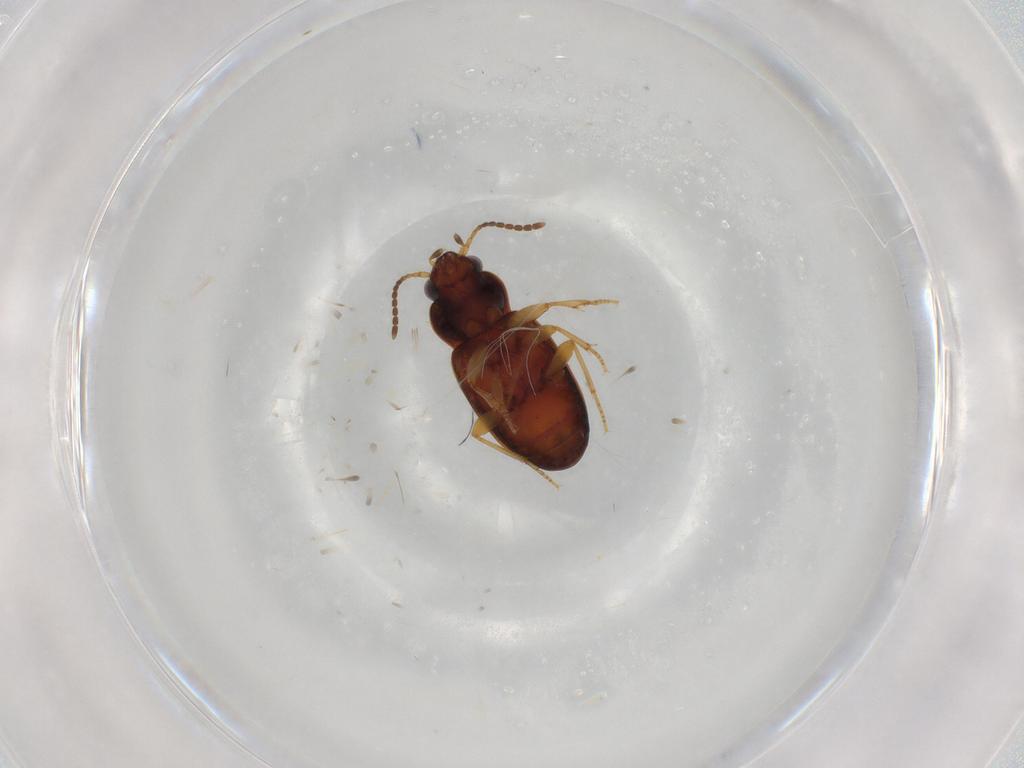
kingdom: Animalia
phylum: Arthropoda
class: Insecta
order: Coleoptera
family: Carabidae
